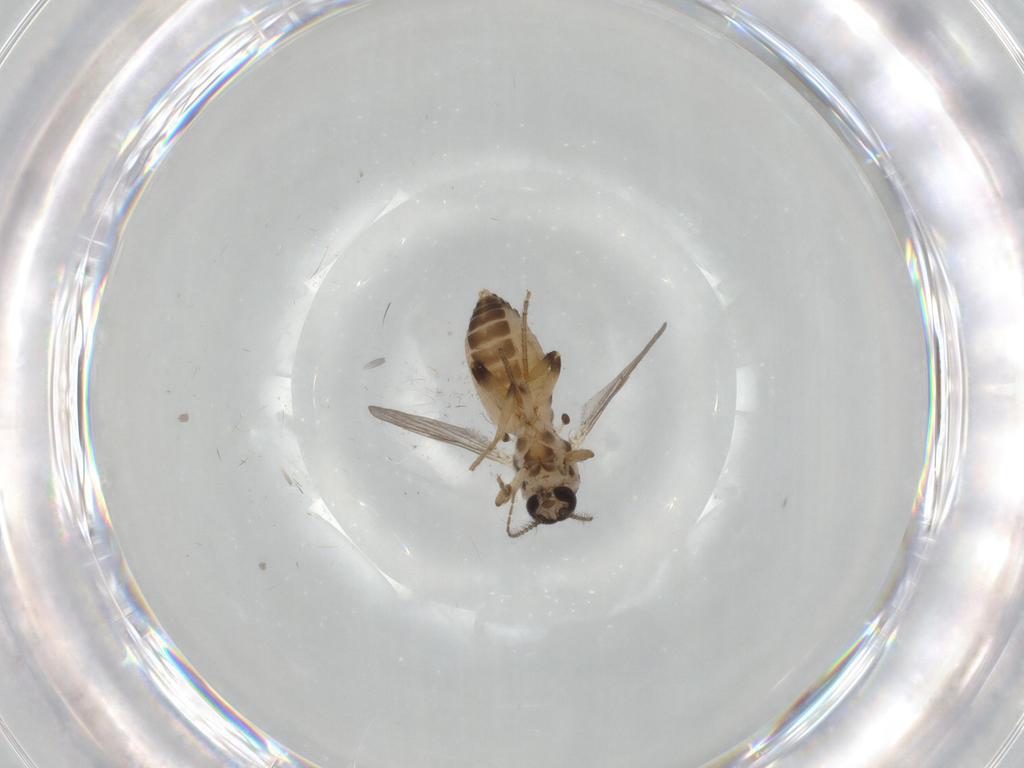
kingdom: Animalia
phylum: Arthropoda
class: Insecta
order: Diptera
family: Ceratopogonidae
